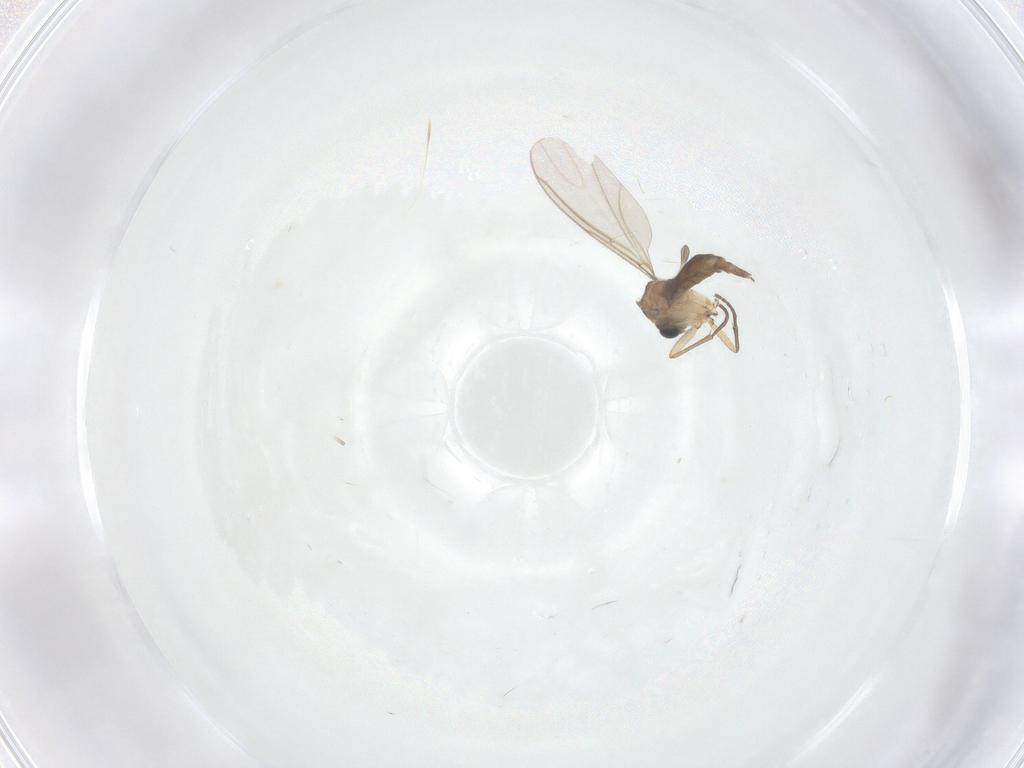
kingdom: Animalia
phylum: Arthropoda
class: Insecta
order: Diptera
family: Sciaridae
